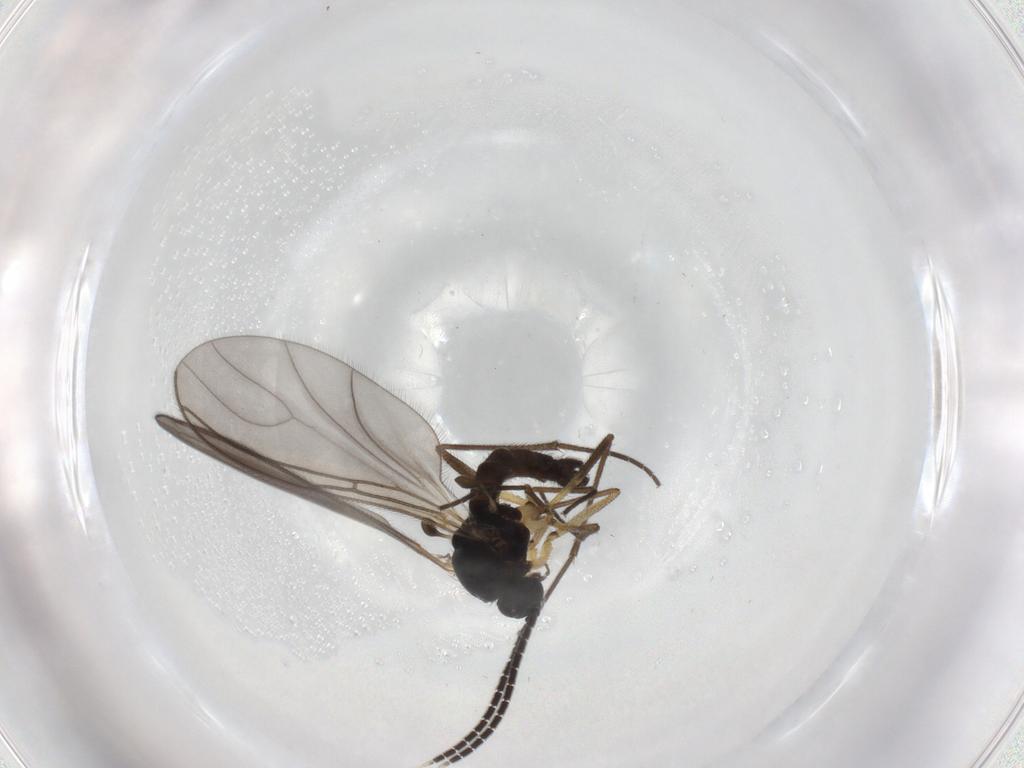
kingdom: Animalia
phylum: Arthropoda
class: Insecta
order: Diptera
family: Sciaridae
